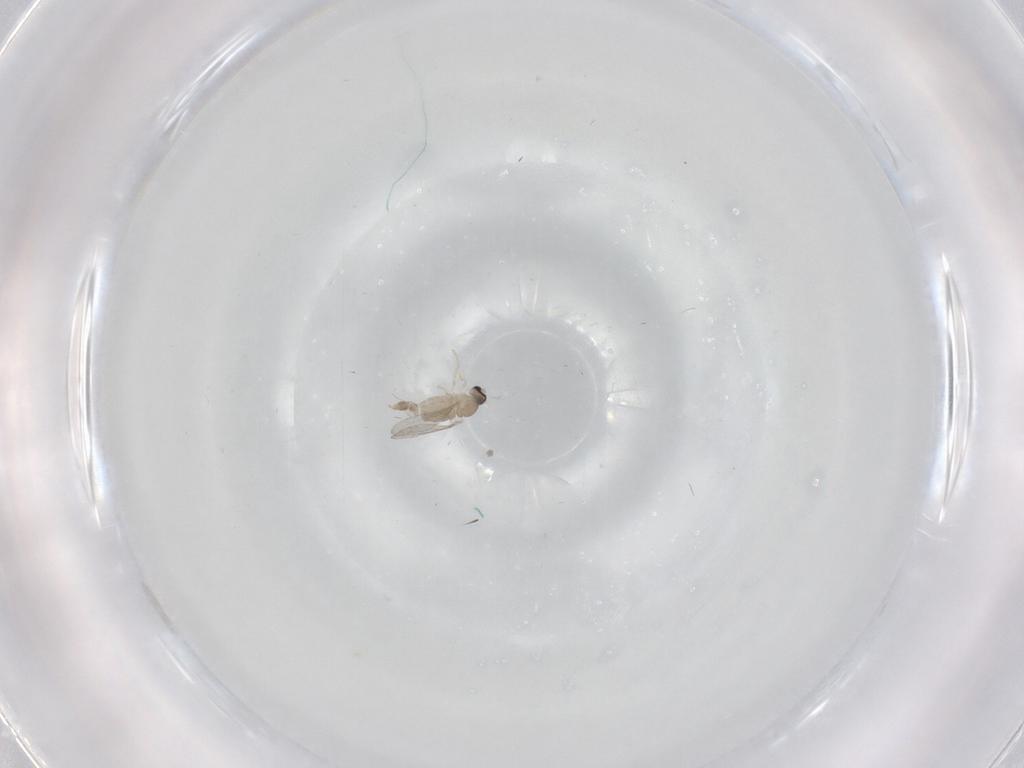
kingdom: Animalia
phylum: Arthropoda
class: Insecta
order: Diptera
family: Cecidomyiidae
